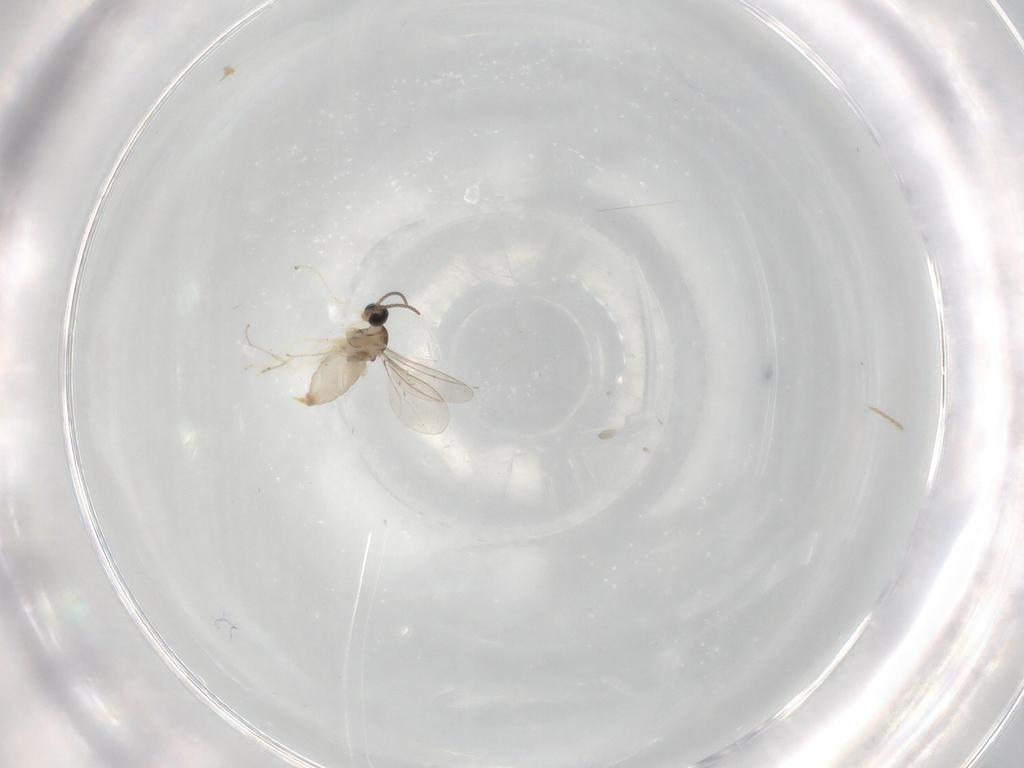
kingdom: Animalia
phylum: Arthropoda
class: Insecta
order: Diptera
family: Cecidomyiidae
